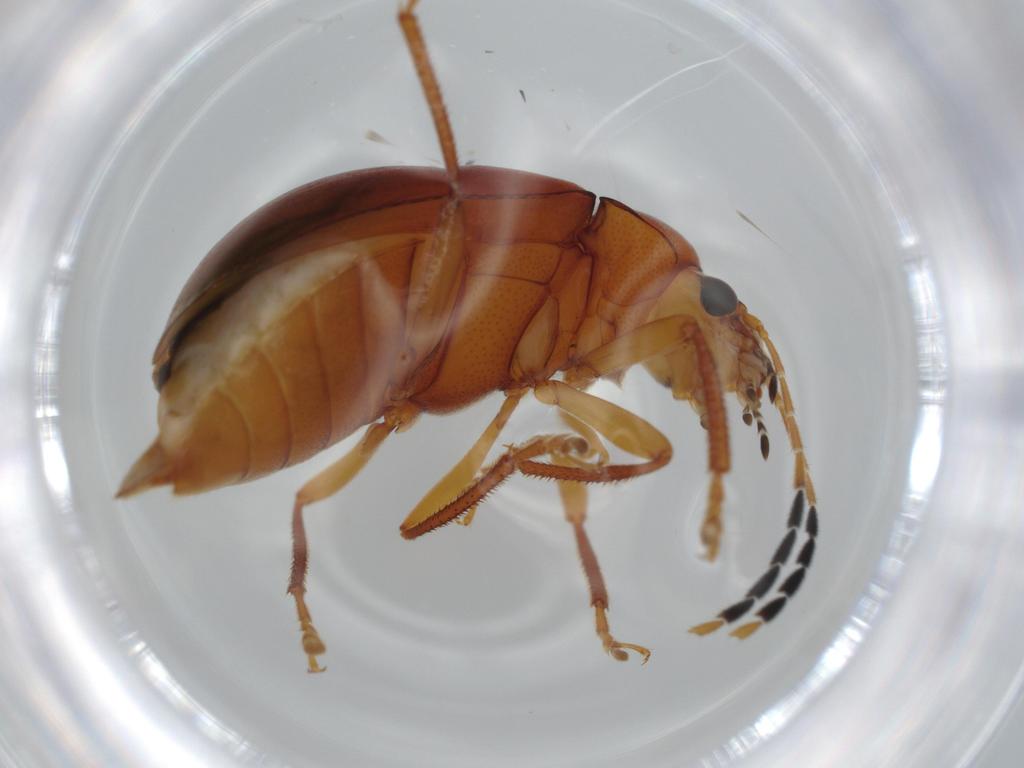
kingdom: Animalia
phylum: Arthropoda
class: Insecta
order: Coleoptera
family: Ptilodactylidae
